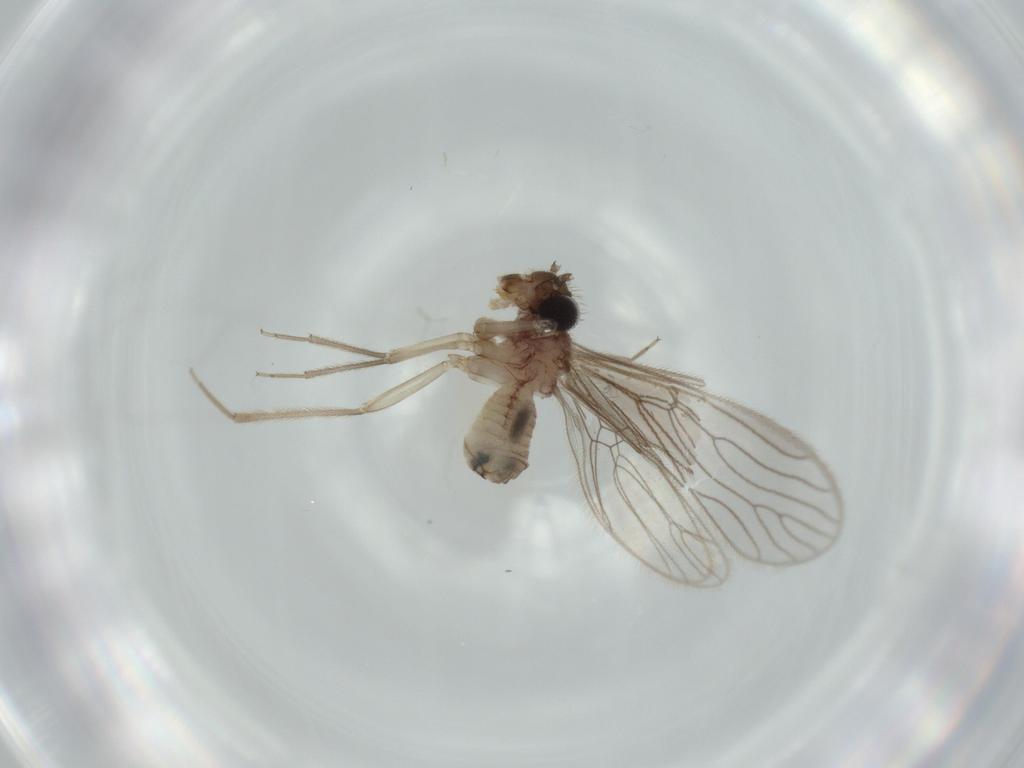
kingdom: Animalia
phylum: Arthropoda
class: Insecta
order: Psocodea
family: Cladiopsocidae
